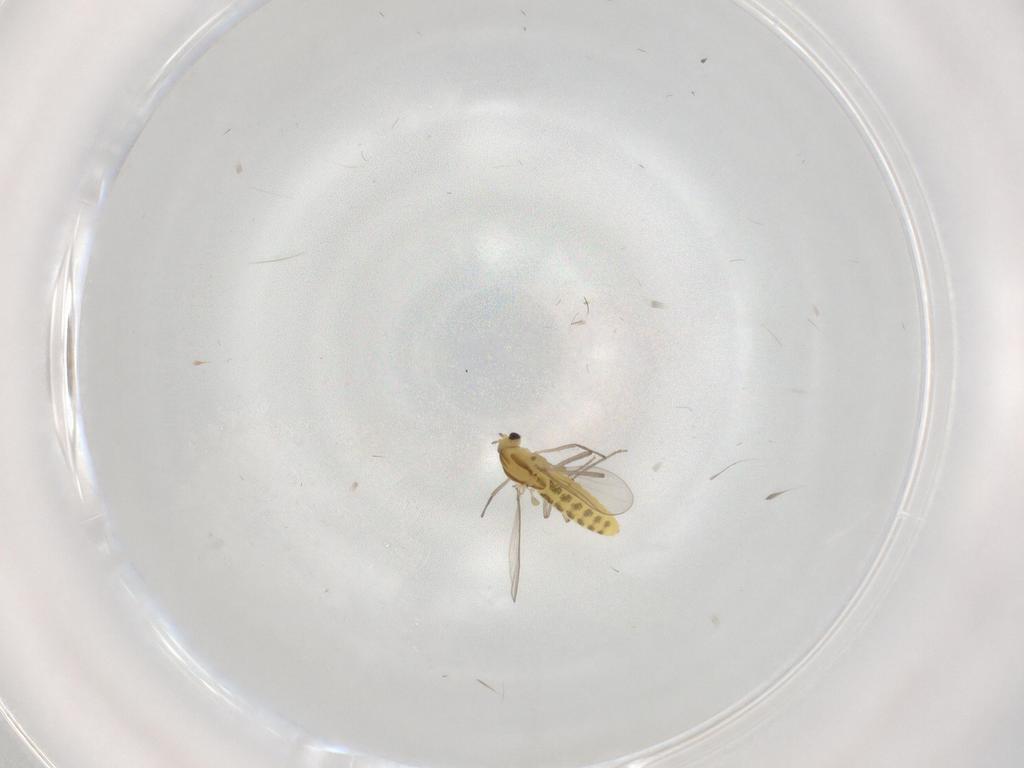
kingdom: Animalia
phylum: Arthropoda
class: Insecta
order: Diptera
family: Chironomidae
